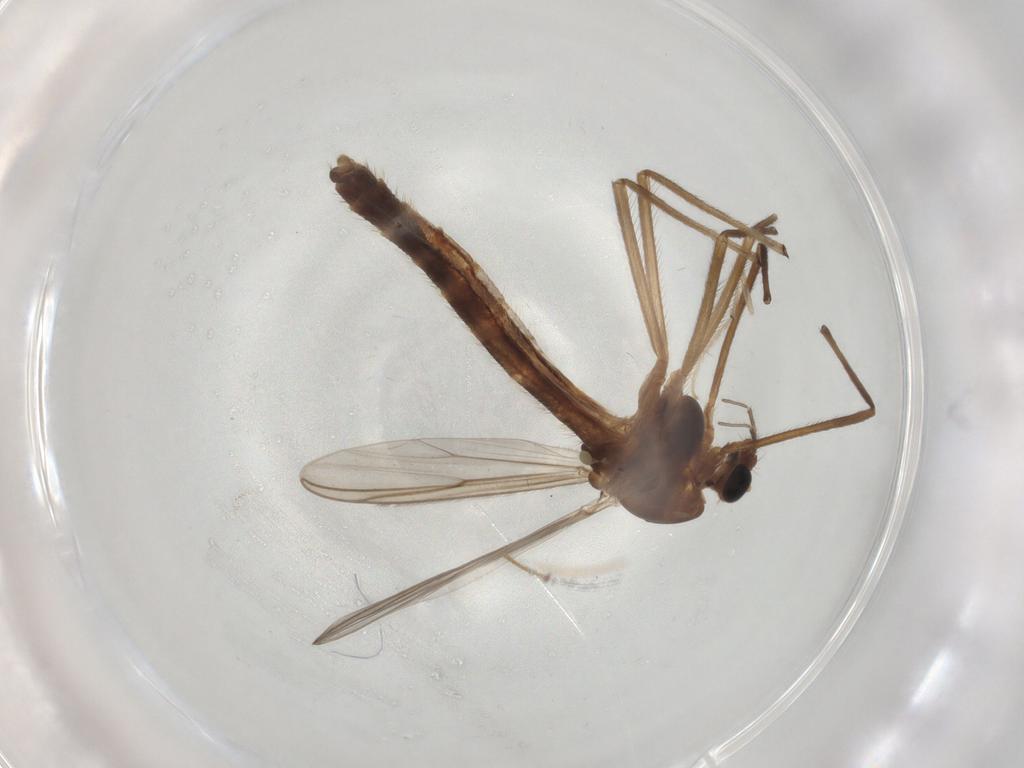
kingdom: Animalia
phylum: Arthropoda
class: Insecta
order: Diptera
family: Chironomidae
